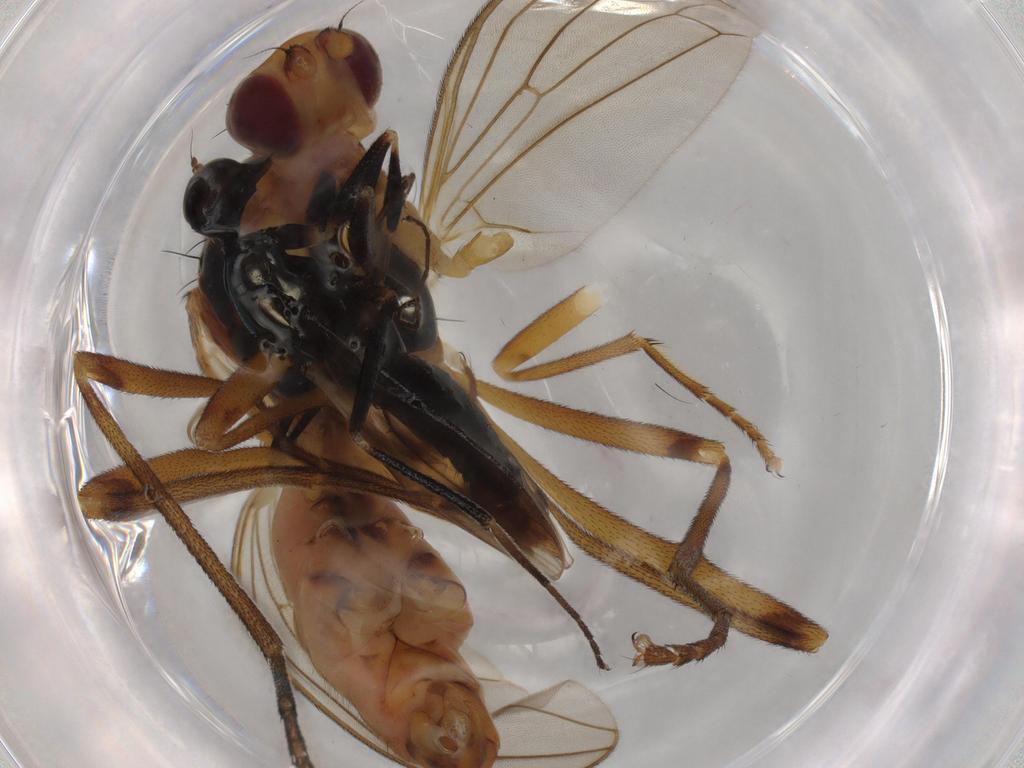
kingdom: Animalia
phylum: Arthropoda
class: Insecta
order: Diptera
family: Sphaeroceridae
